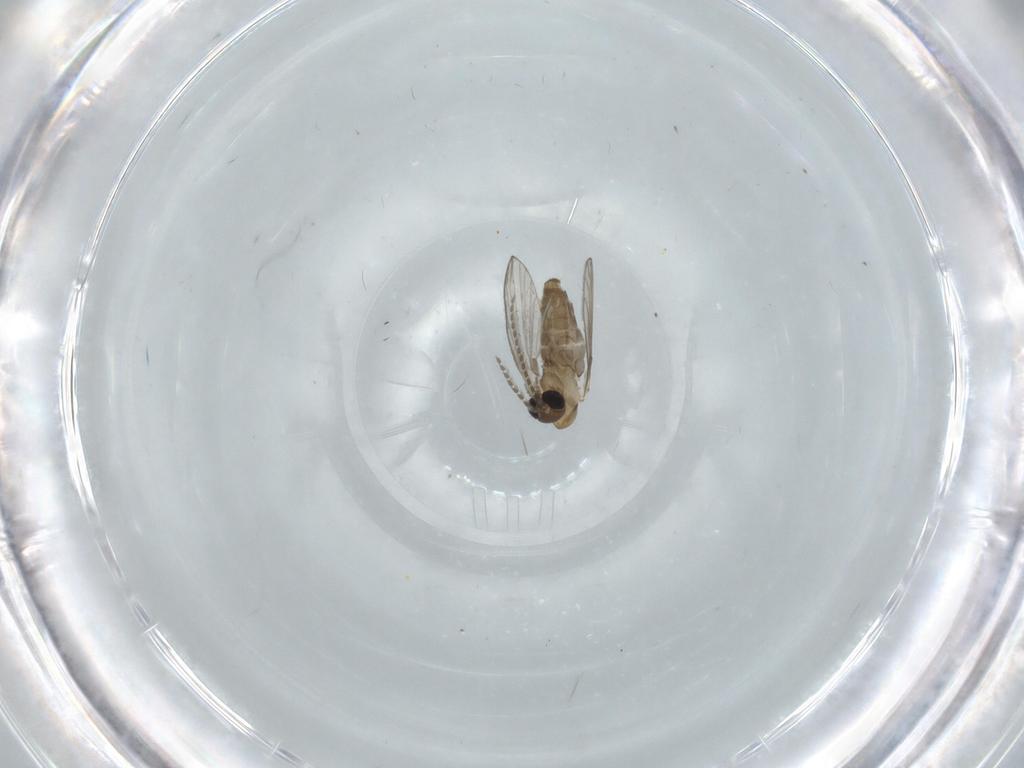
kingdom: Animalia
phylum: Arthropoda
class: Insecta
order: Diptera
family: Psychodidae
